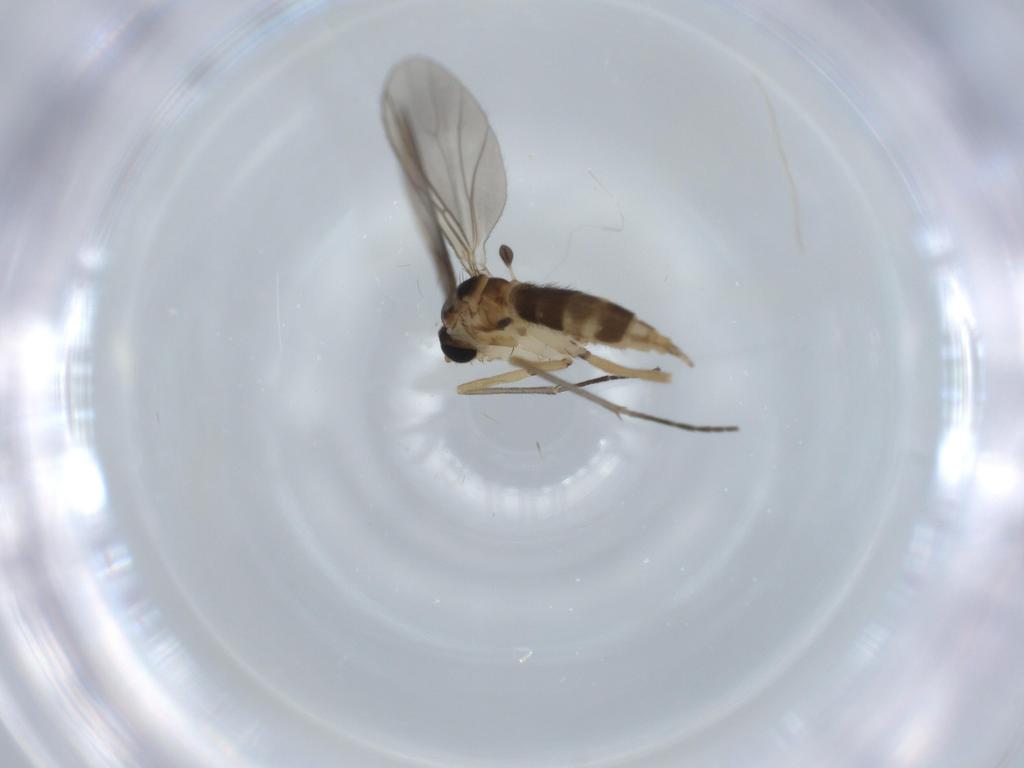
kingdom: Animalia
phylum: Arthropoda
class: Insecta
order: Diptera
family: Sciaridae
